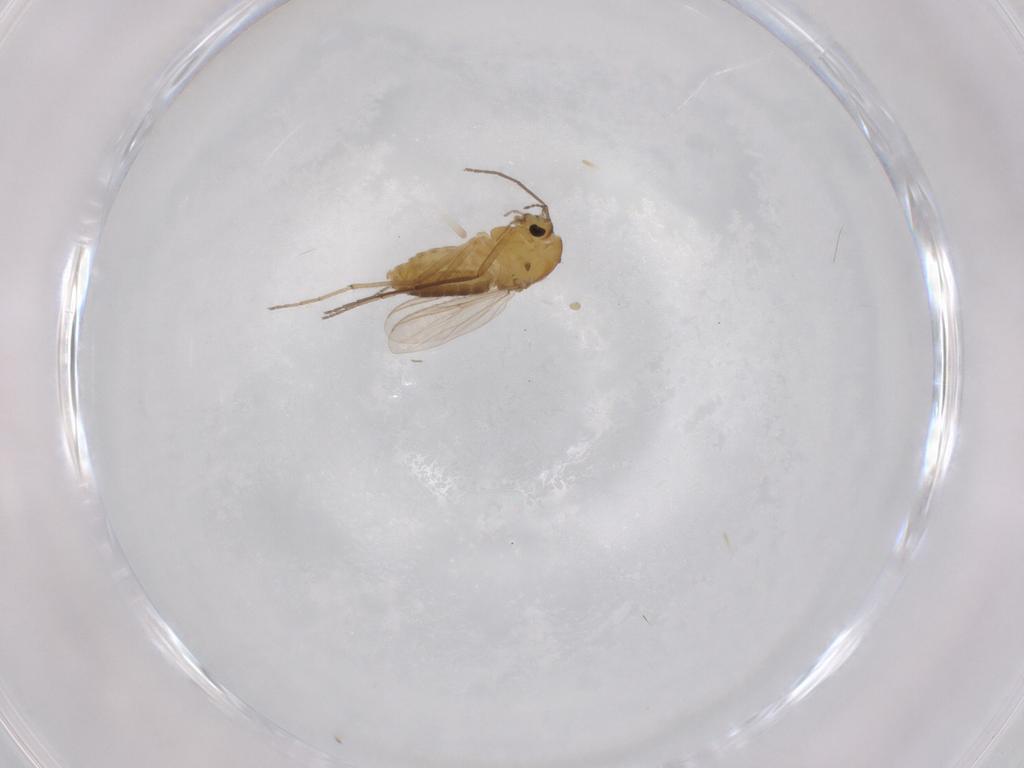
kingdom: Animalia
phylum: Arthropoda
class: Insecta
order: Diptera
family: Chironomidae
